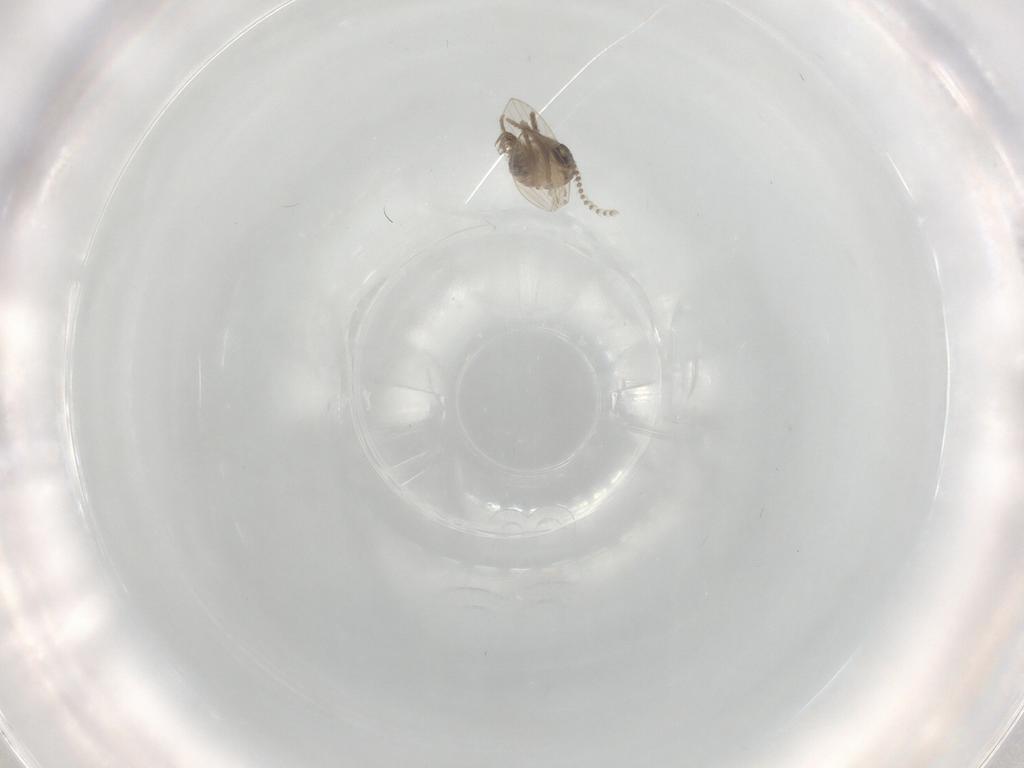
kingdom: Animalia
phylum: Arthropoda
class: Insecta
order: Diptera
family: Psychodidae
